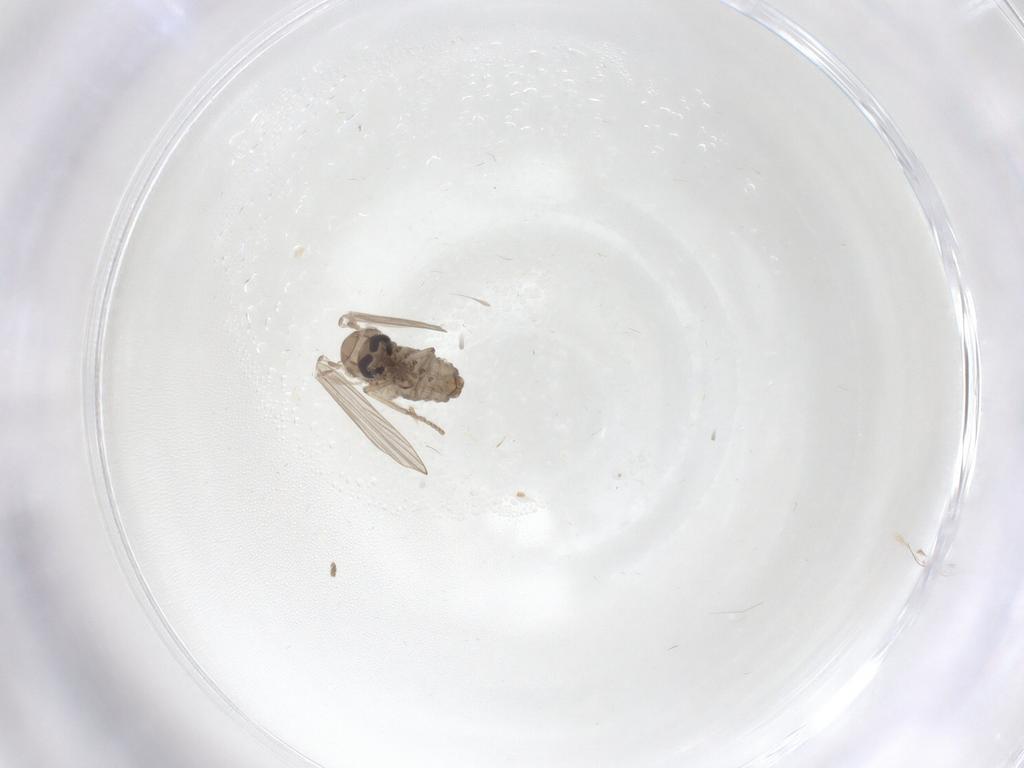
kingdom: Animalia
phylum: Arthropoda
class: Insecta
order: Diptera
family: Psychodidae
